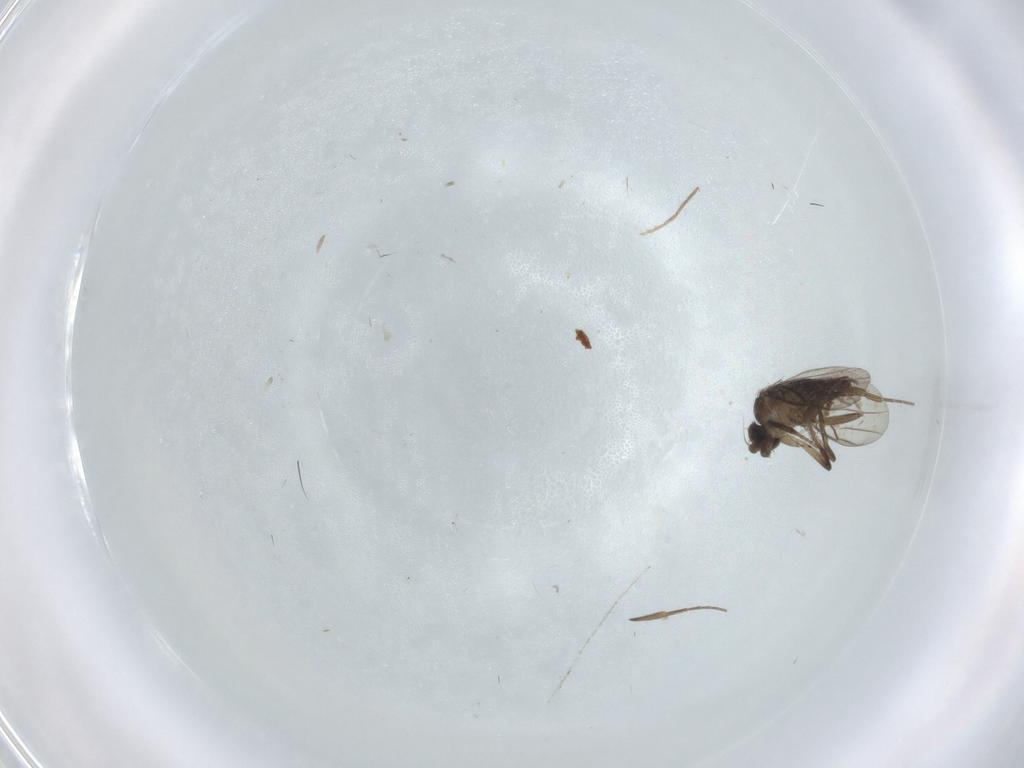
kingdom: Animalia
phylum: Arthropoda
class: Insecta
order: Diptera
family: Phoridae
